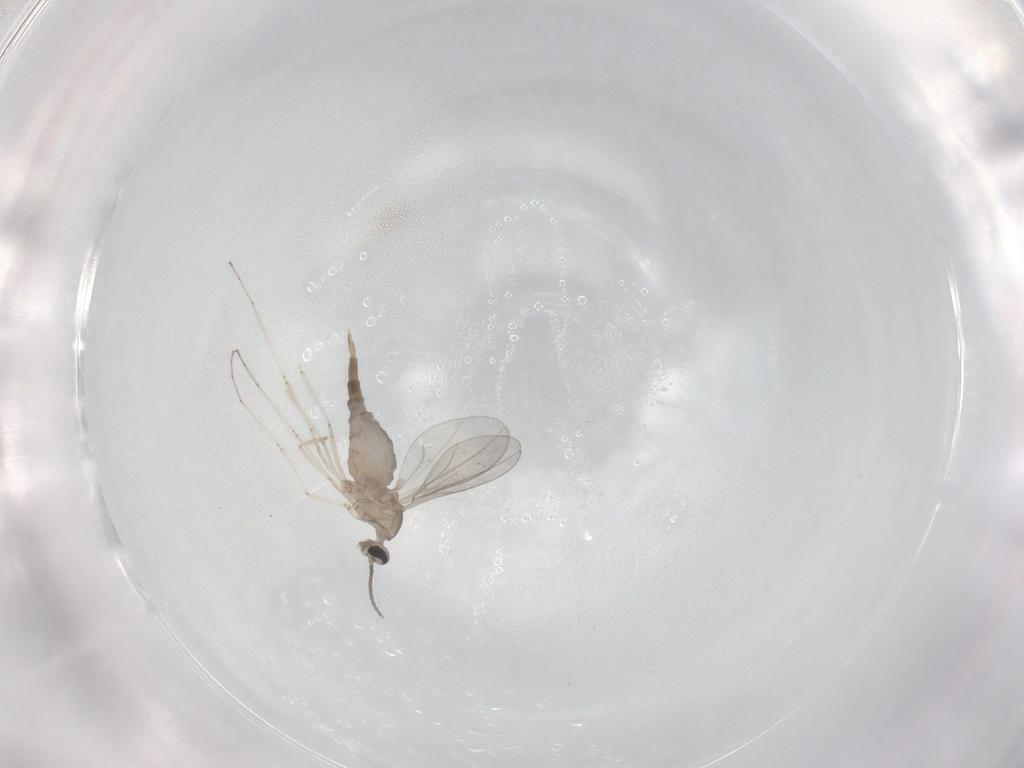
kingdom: Animalia
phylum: Arthropoda
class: Insecta
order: Diptera
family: Cecidomyiidae
